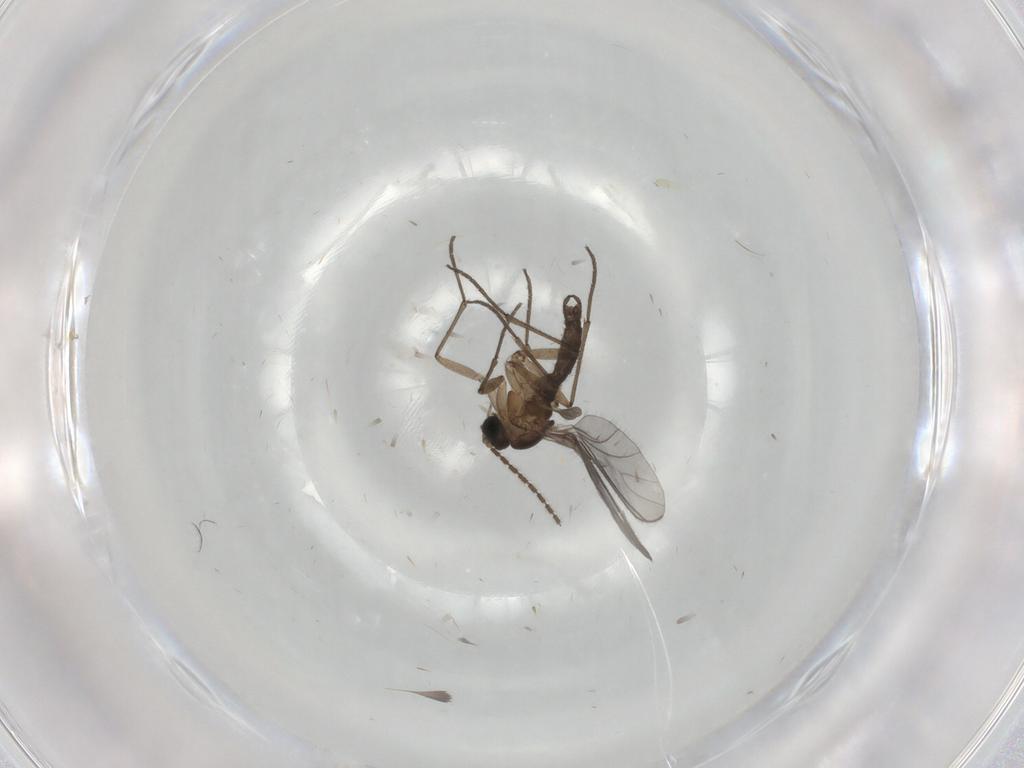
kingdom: Animalia
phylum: Arthropoda
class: Insecta
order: Diptera
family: Sciaridae
